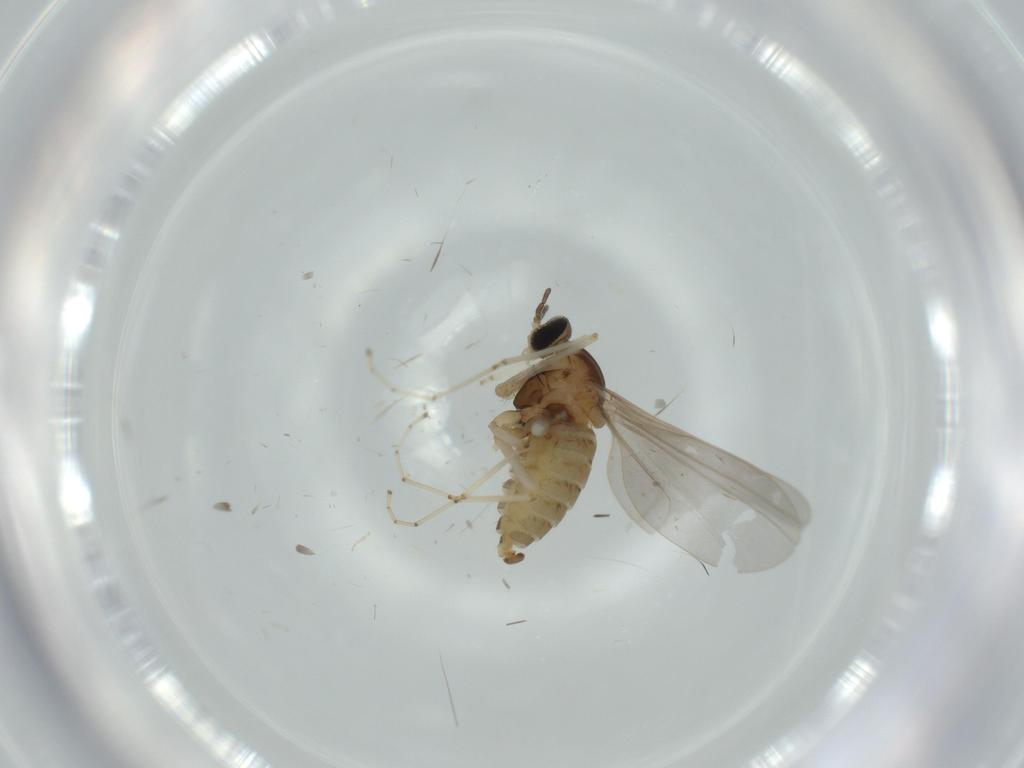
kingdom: Animalia
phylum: Arthropoda
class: Insecta
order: Diptera
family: Cecidomyiidae
